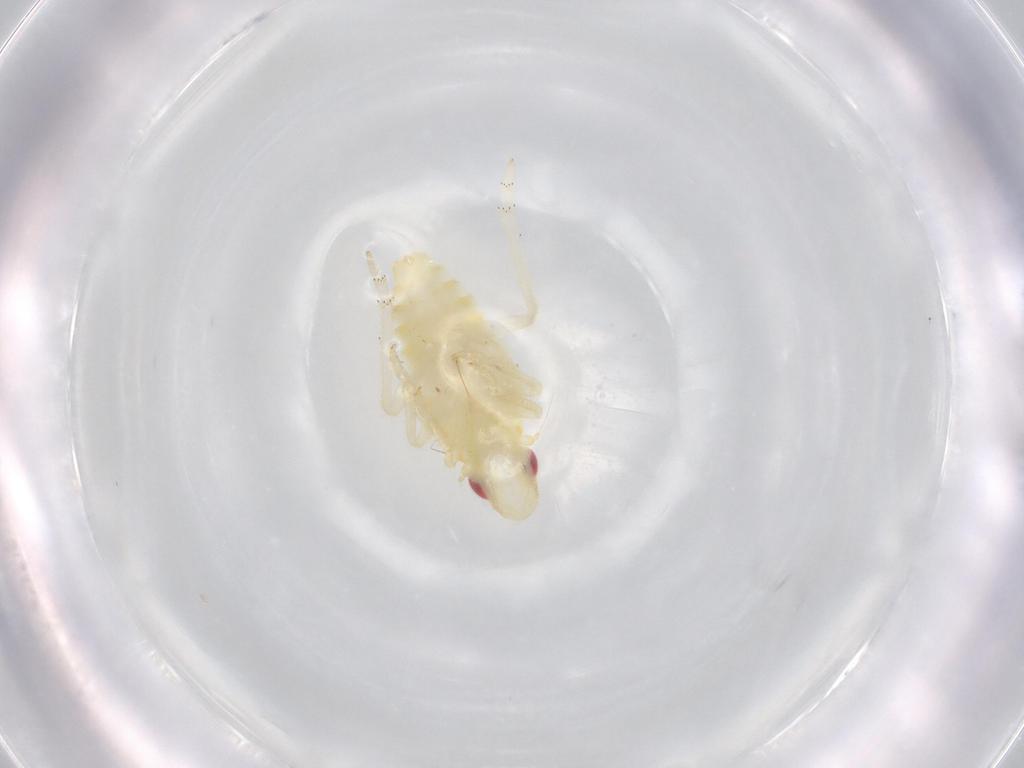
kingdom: Animalia
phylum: Arthropoda
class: Insecta
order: Hemiptera
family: Tropiduchidae
